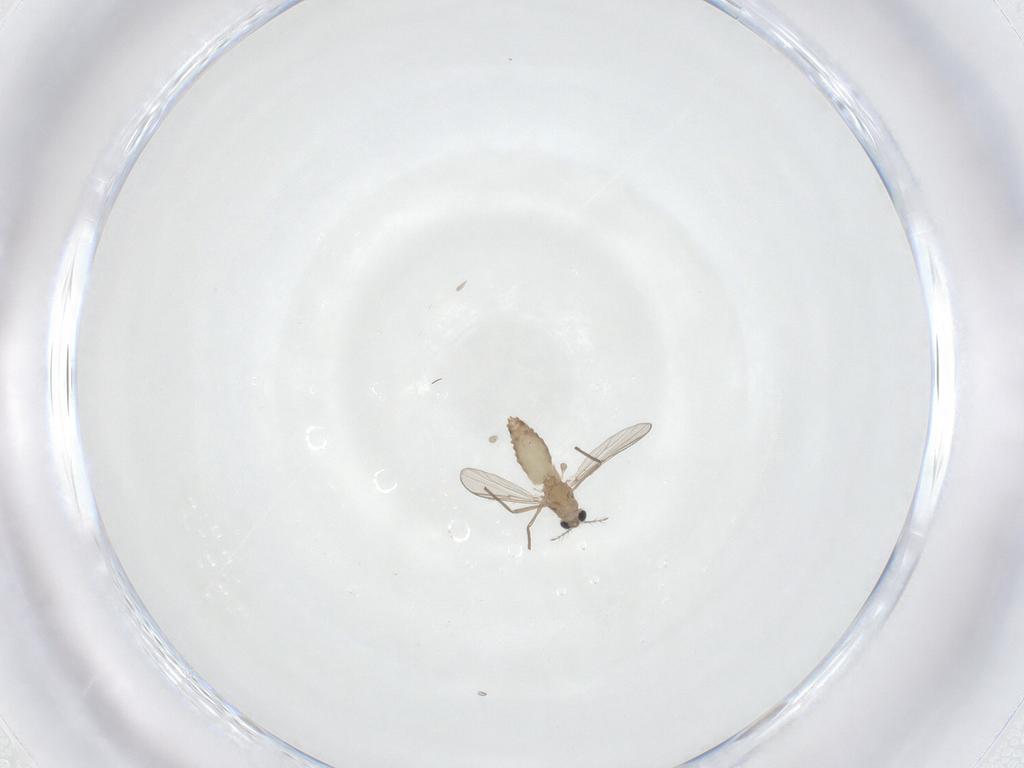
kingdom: Animalia
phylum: Arthropoda
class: Insecta
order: Diptera
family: Chironomidae
